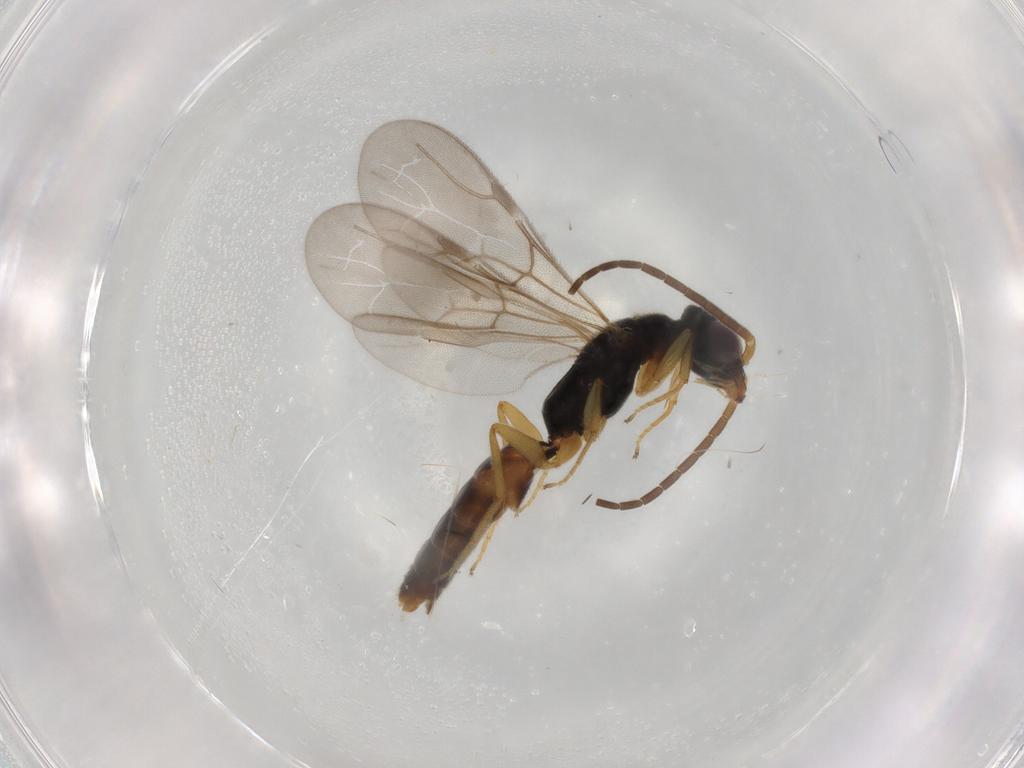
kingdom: Animalia
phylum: Arthropoda
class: Insecta
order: Hymenoptera
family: Bethylidae
